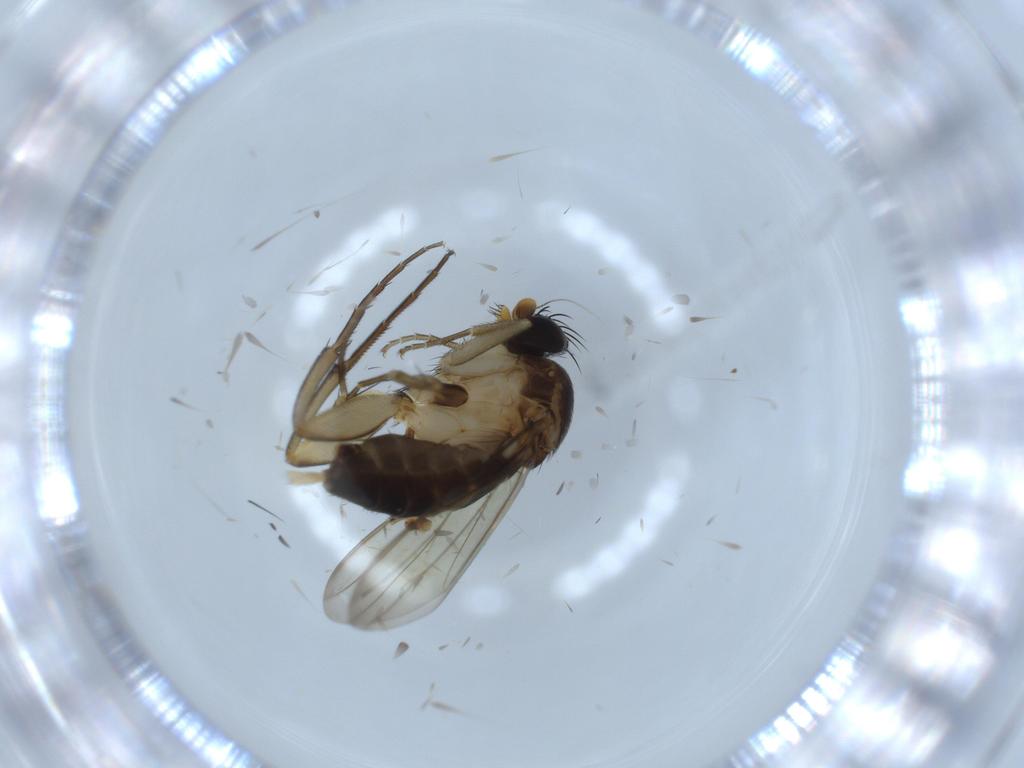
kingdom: Animalia
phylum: Arthropoda
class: Insecta
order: Diptera
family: Phoridae
